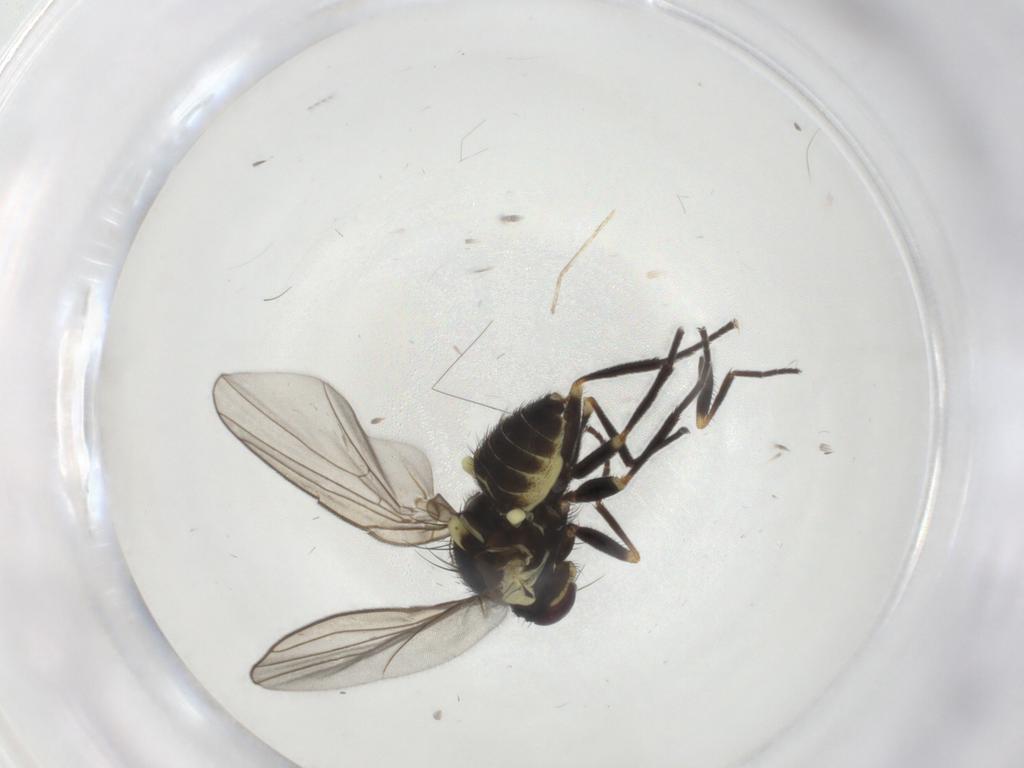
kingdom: Animalia
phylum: Arthropoda
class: Insecta
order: Diptera
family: Agromyzidae
